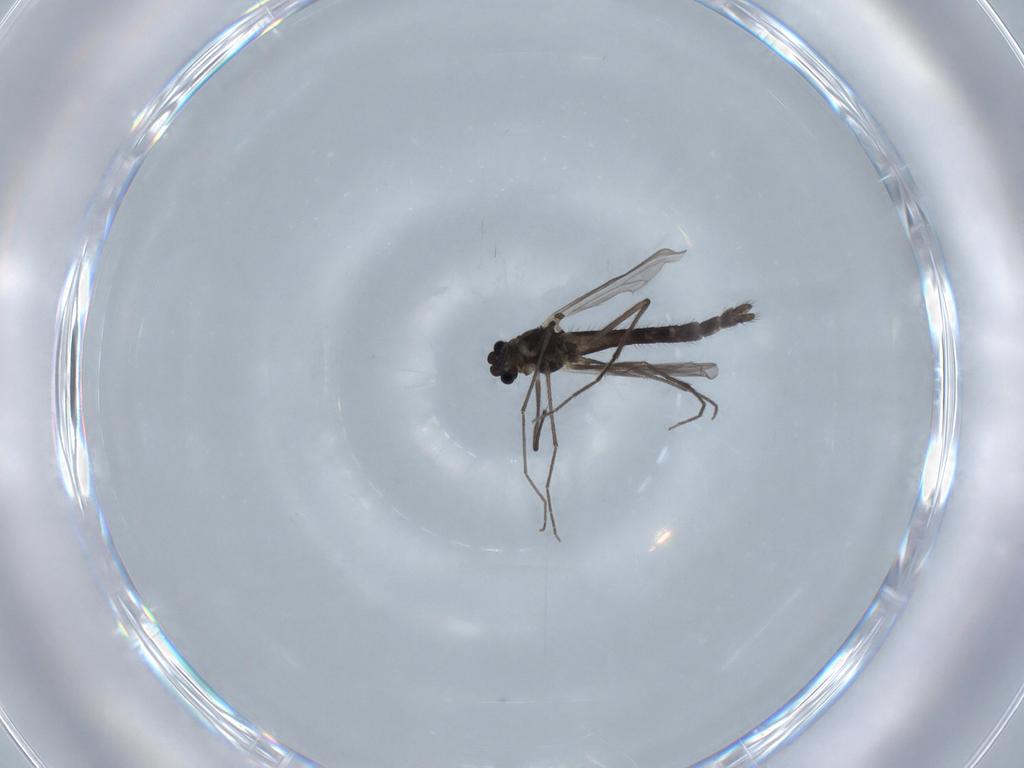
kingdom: Animalia
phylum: Arthropoda
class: Insecta
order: Diptera
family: Chironomidae
